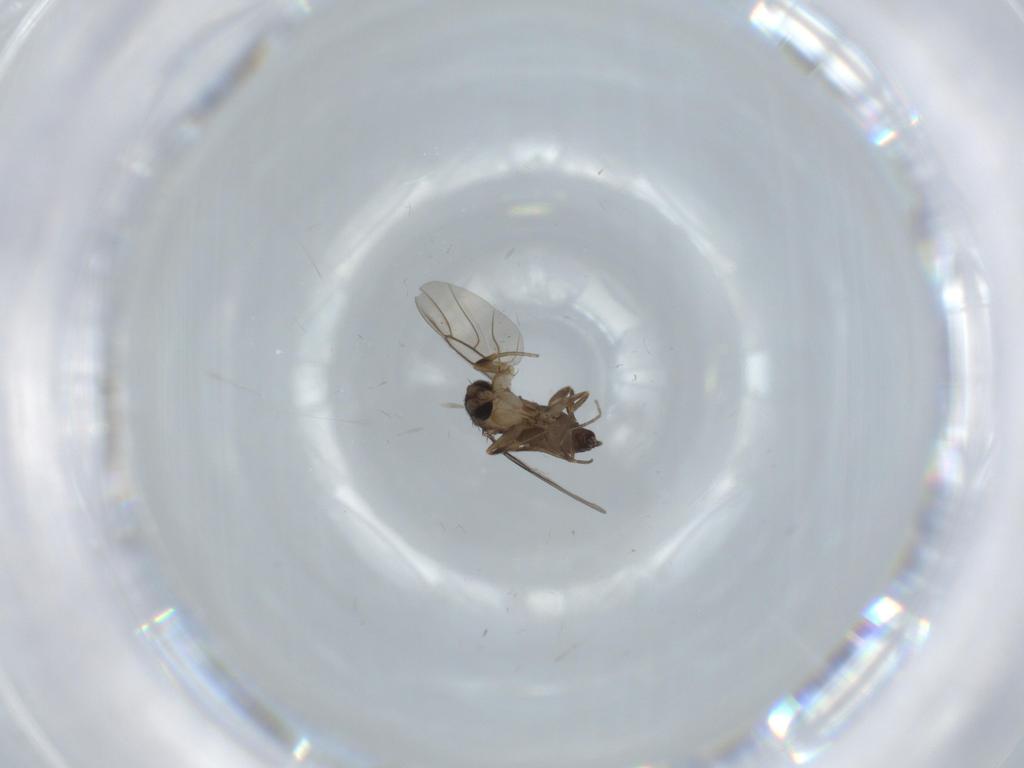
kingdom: Animalia
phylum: Arthropoda
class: Insecta
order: Diptera
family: Phoridae
